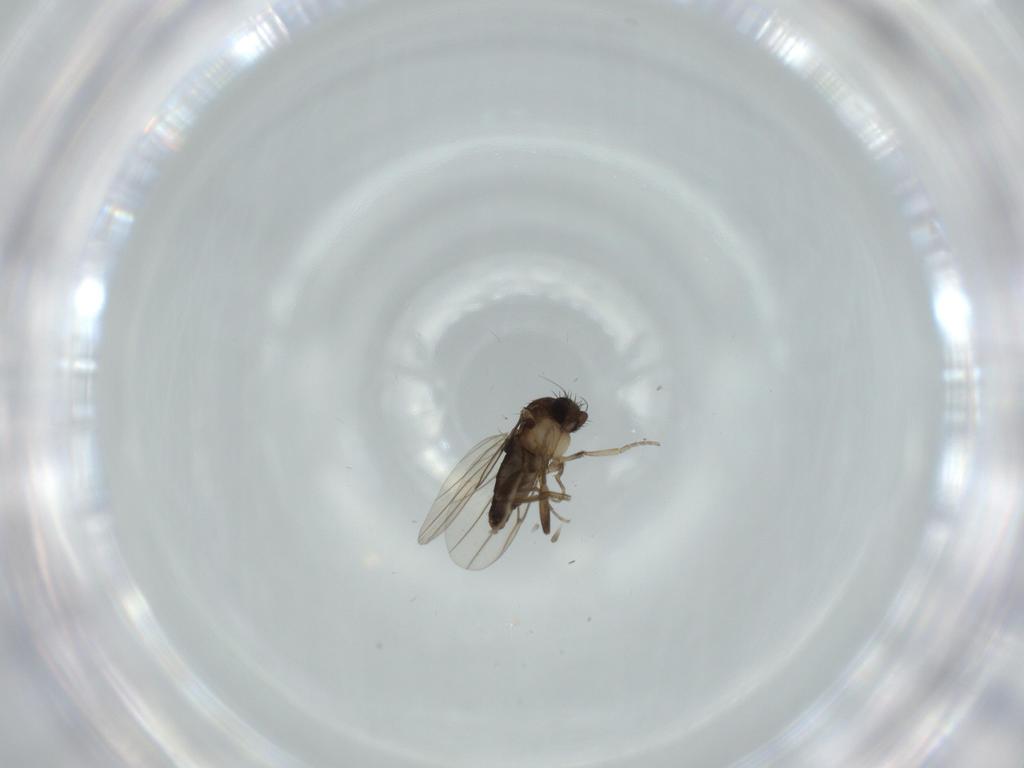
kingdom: Animalia
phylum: Arthropoda
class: Insecta
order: Diptera
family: Phoridae
